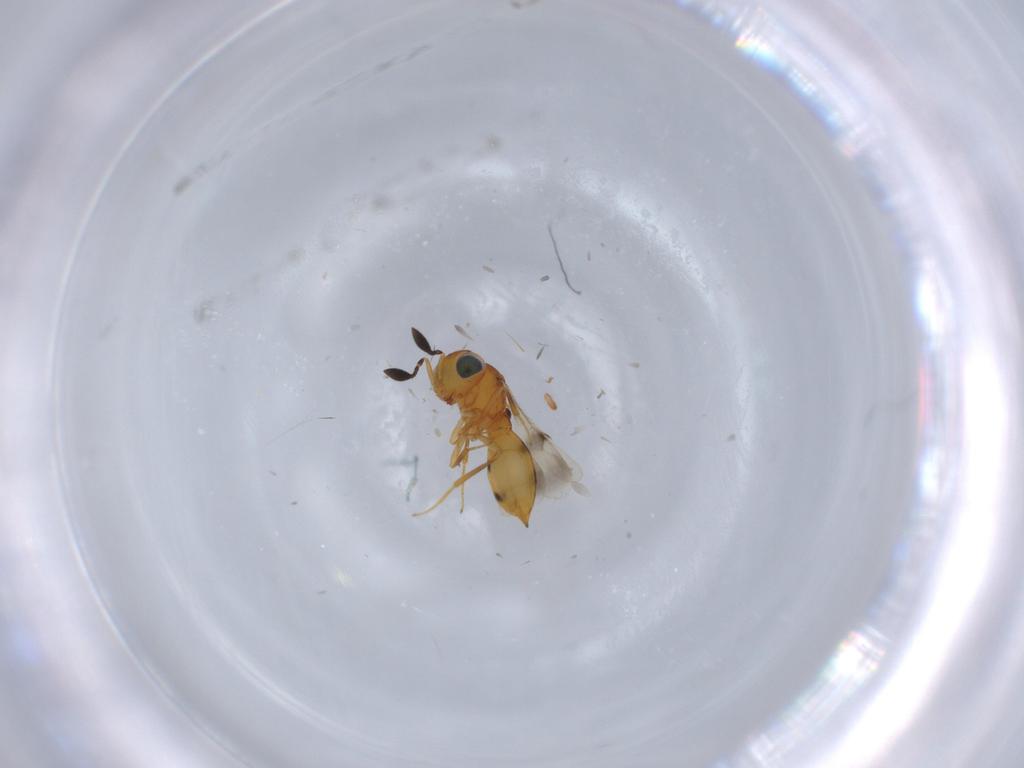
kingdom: Animalia
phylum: Arthropoda
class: Insecta
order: Hymenoptera
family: Scelionidae
